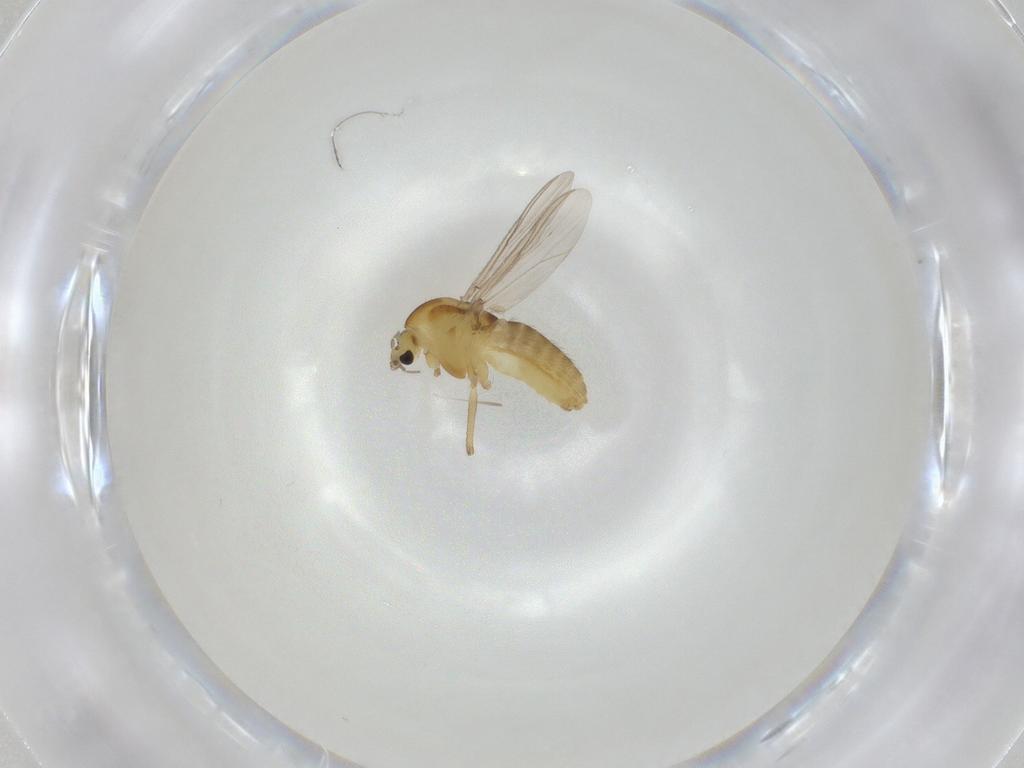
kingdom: Animalia
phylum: Arthropoda
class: Insecta
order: Diptera
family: Chironomidae
